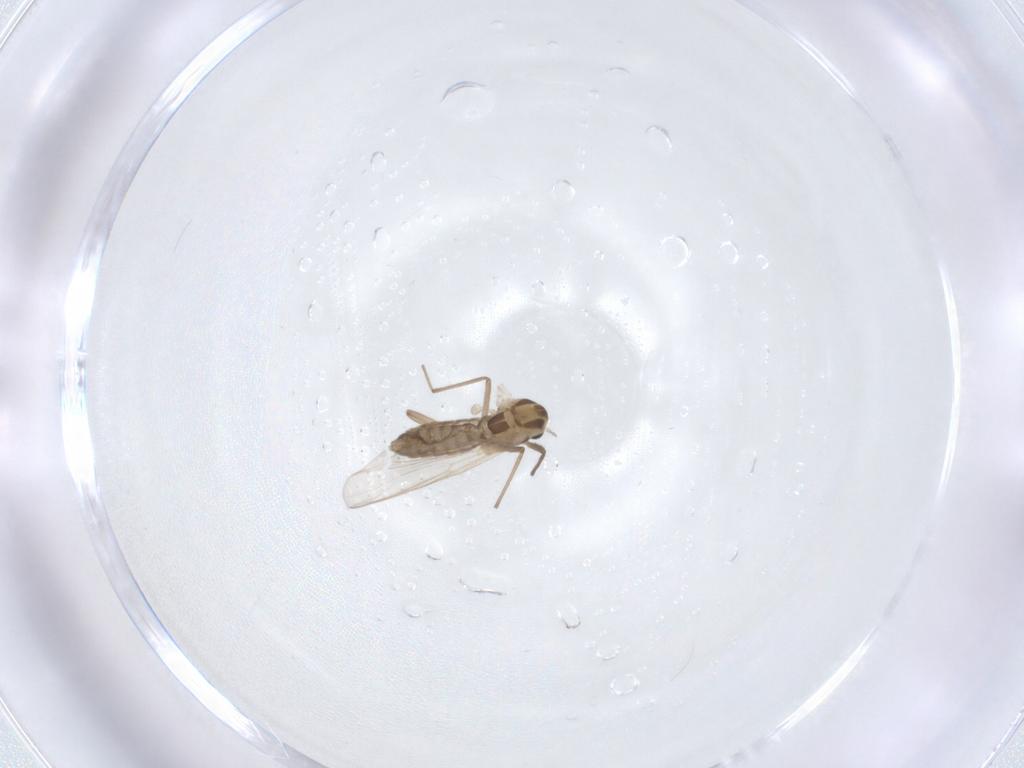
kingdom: Animalia
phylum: Arthropoda
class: Insecta
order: Diptera
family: Chironomidae
